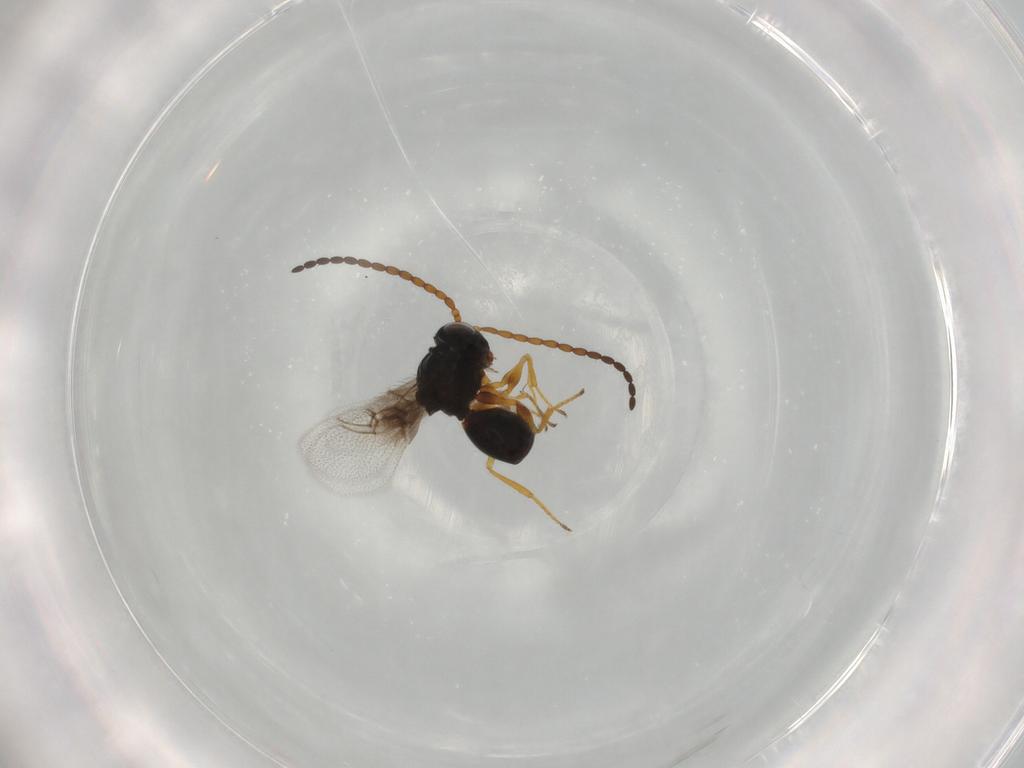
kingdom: Animalia
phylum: Arthropoda
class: Insecta
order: Hymenoptera
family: Figitidae
